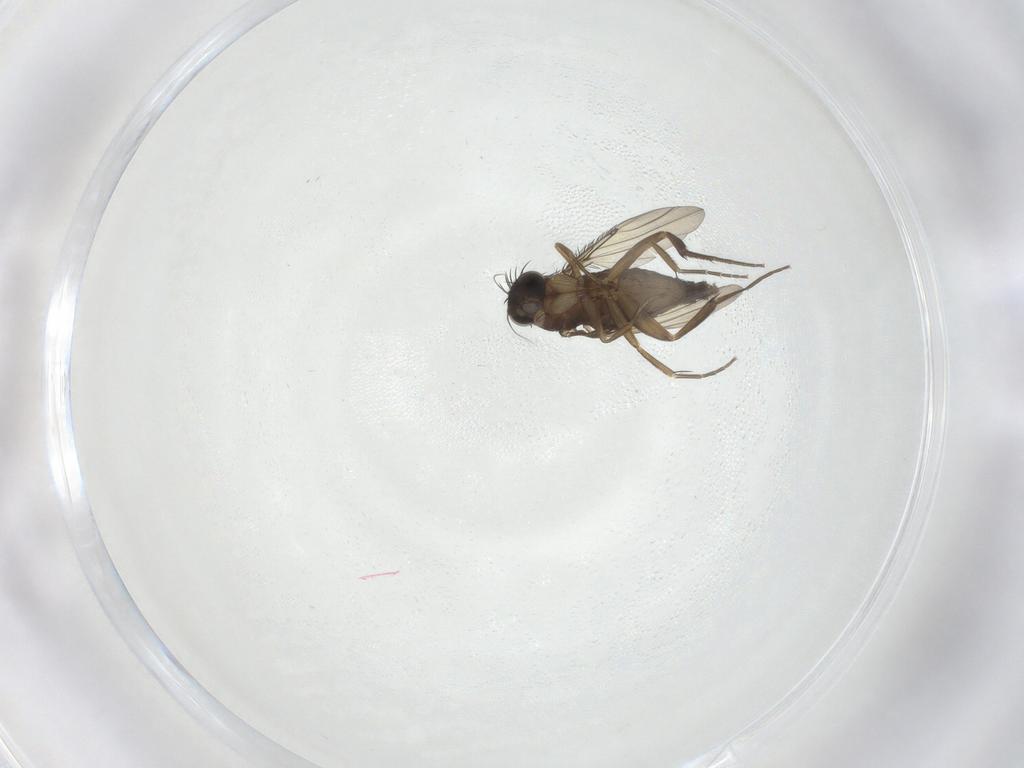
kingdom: Animalia
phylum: Arthropoda
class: Insecta
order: Diptera
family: Phoridae
